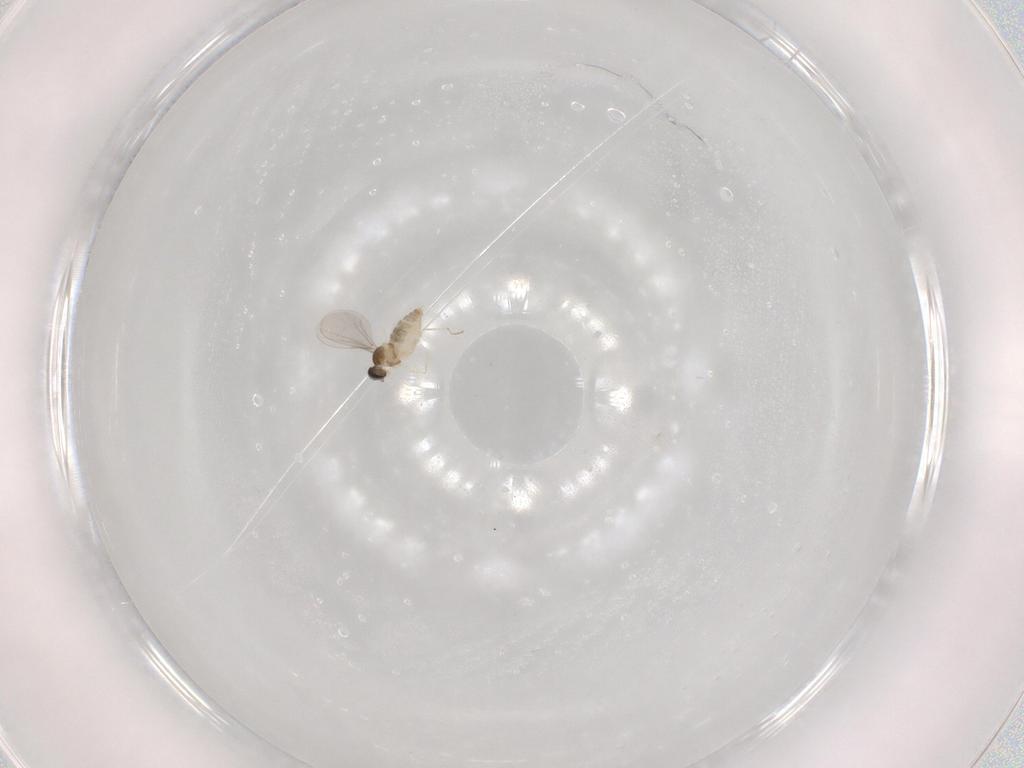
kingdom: Animalia
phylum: Arthropoda
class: Insecta
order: Diptera
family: Cecidomyiidae
